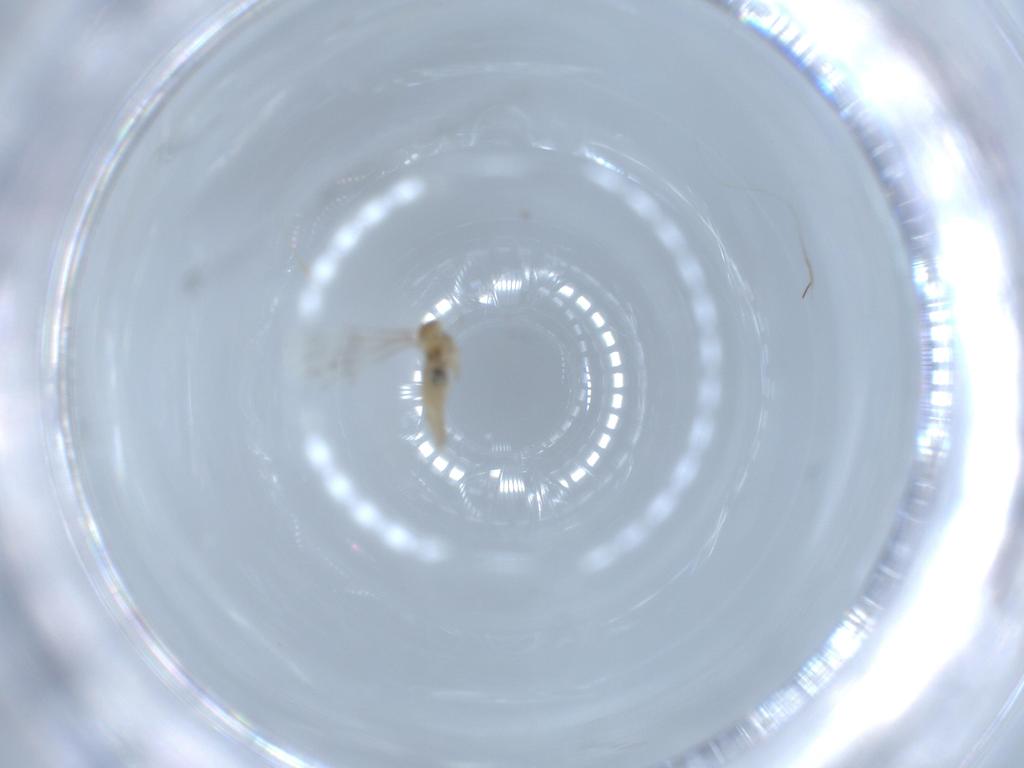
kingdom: Animalia
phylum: Arthropoda
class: Insecta
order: Diptera
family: Cecidomyiidae
